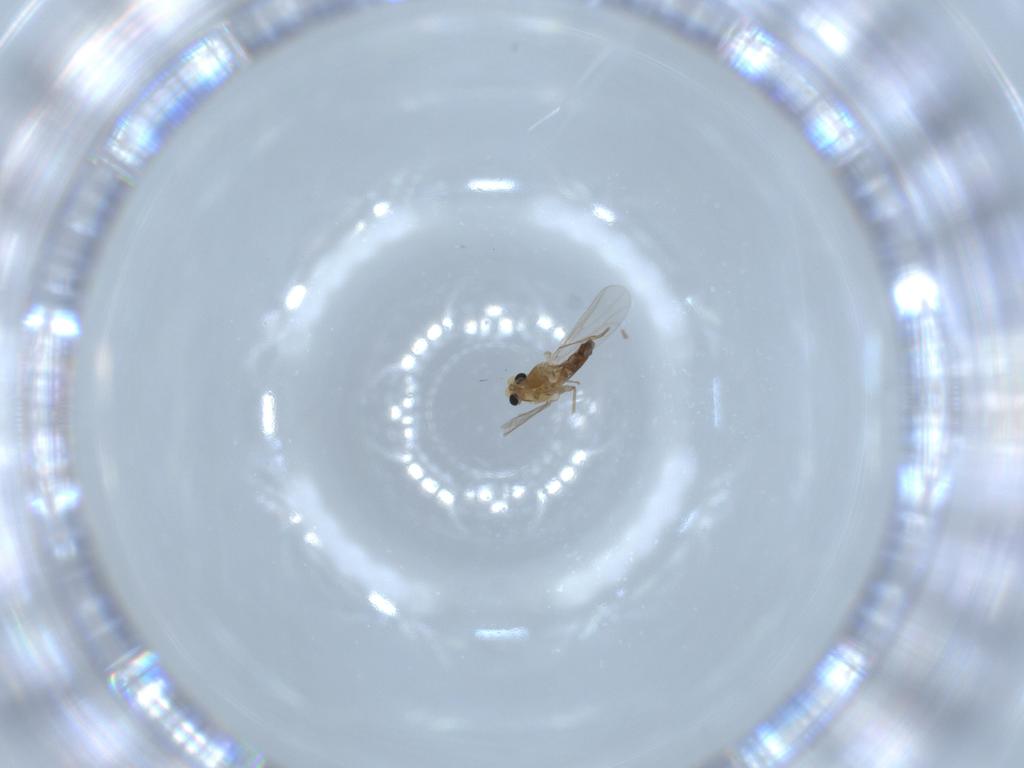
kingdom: Animalia
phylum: Arthropoda
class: Insecta
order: Diptera
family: Chironomidae
